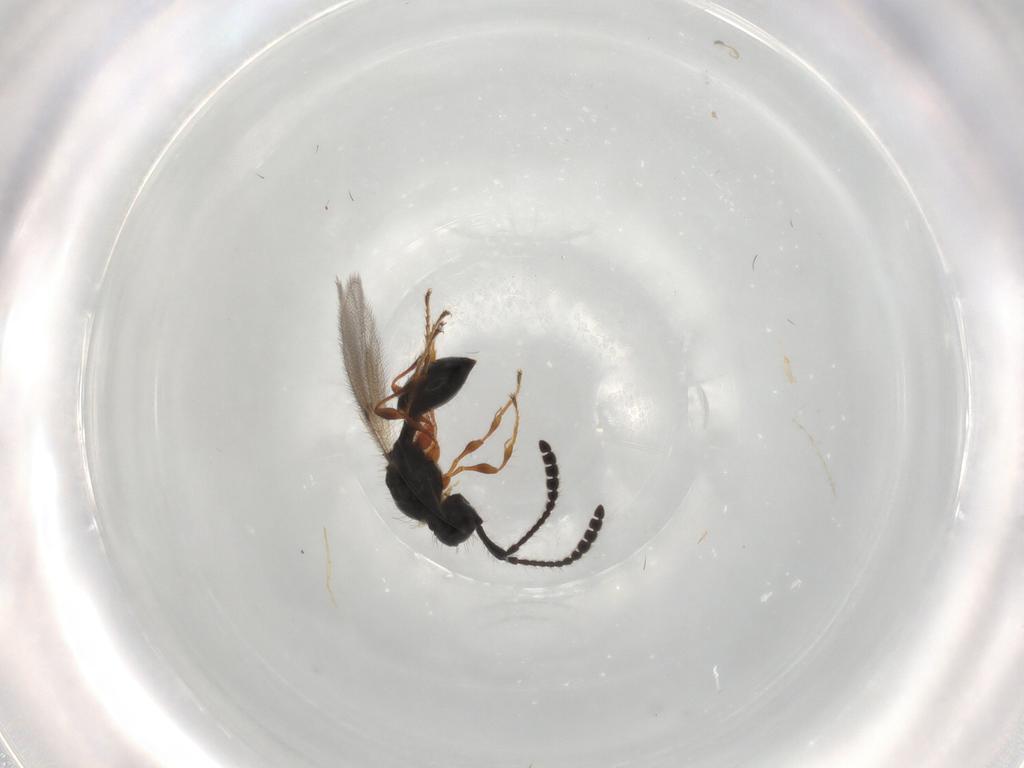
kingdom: Animalia
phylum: Arthropoda
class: Insecta
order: Hymenoptera
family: Diapriidae
